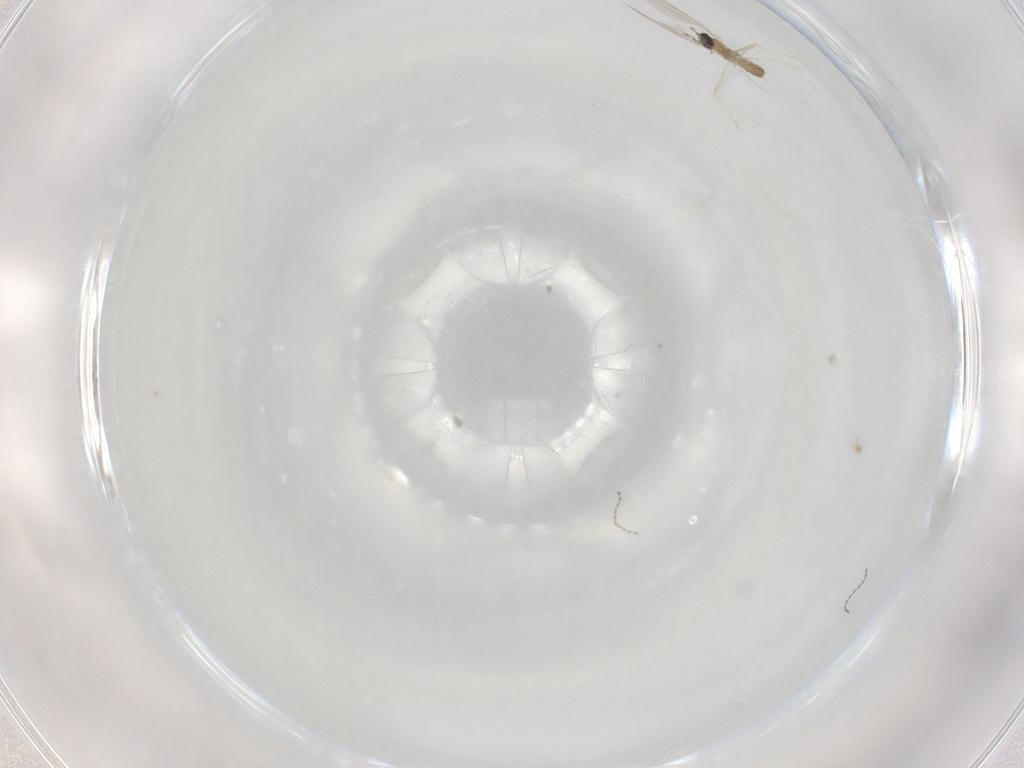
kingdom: Animalia
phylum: Arthropoda
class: Insecta
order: Diptera
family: Cecidomyiidae
